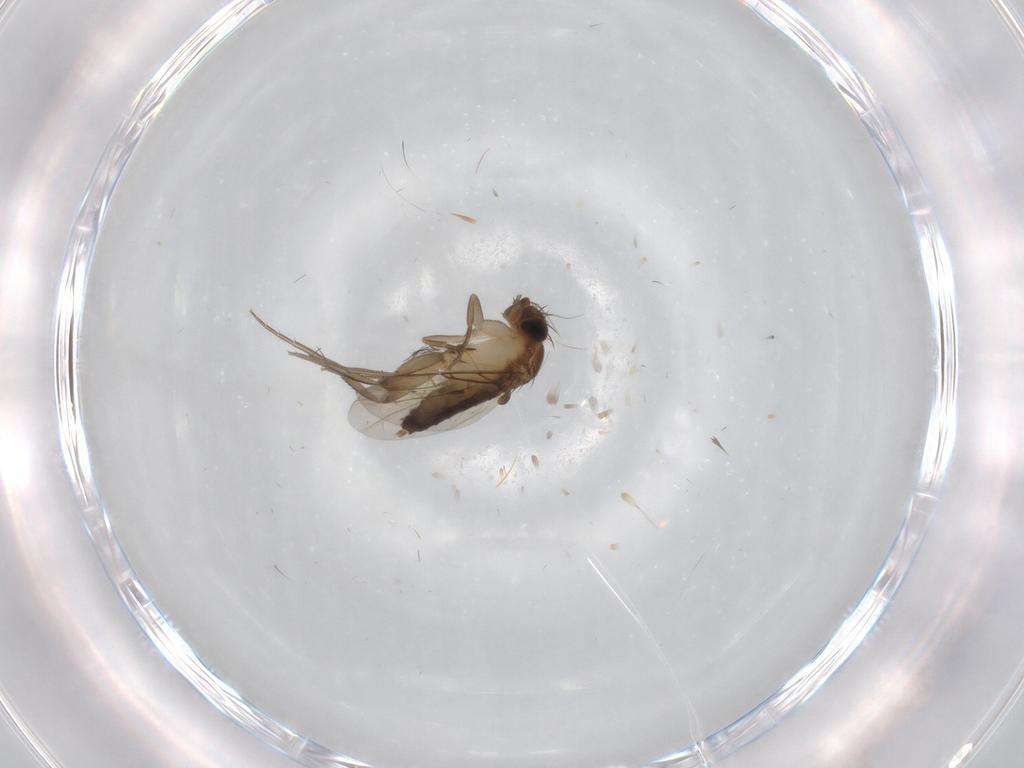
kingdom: Animalia
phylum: Arthropoda
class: Insecta
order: Diptera
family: Phoridae
